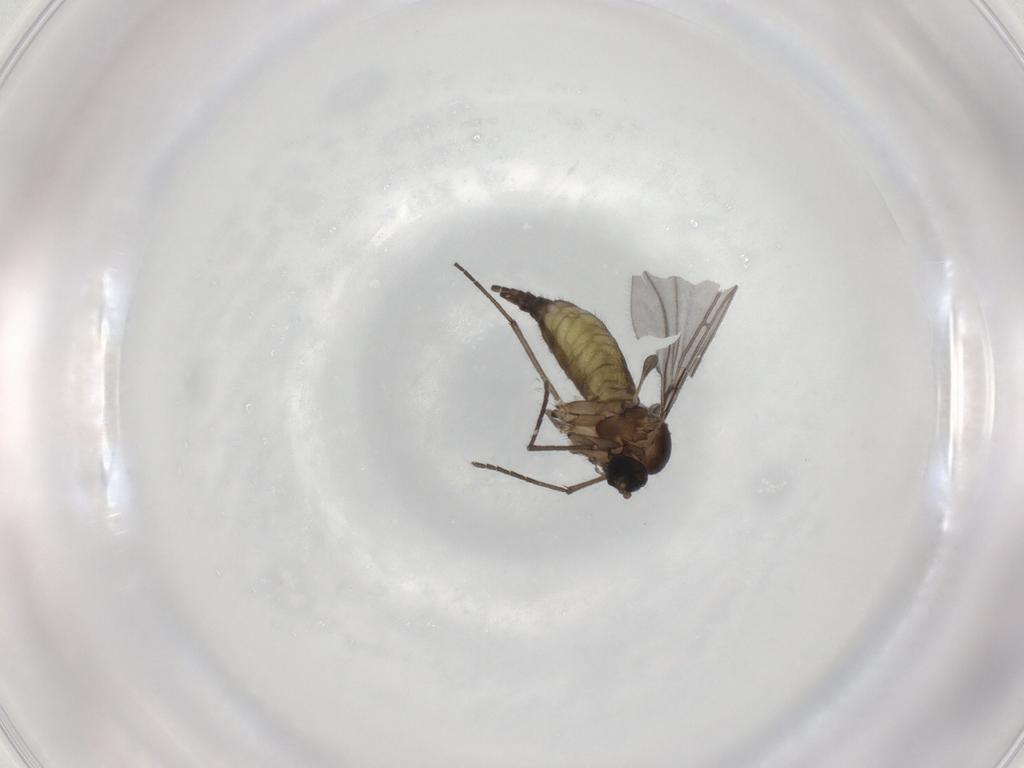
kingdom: Animalia
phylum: Arthropoda
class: Insecta
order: Diptera
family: Sciaridae
